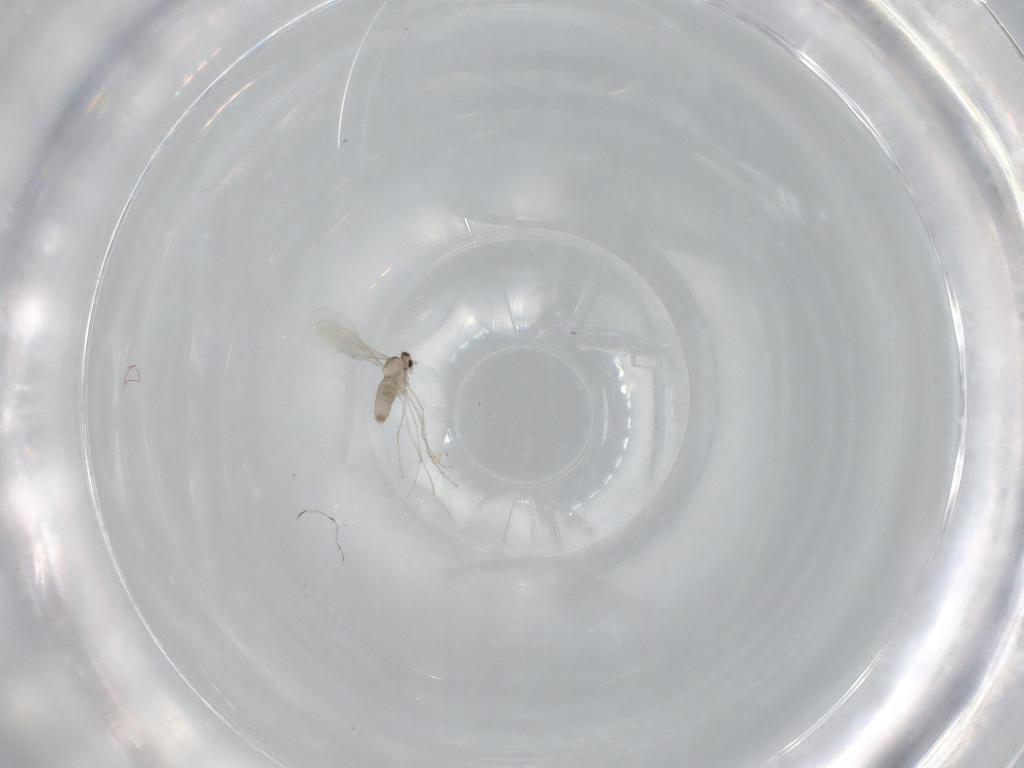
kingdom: Animalia
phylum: Arthropoda
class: Insecta
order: Diptera
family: Cecidomyiidae
